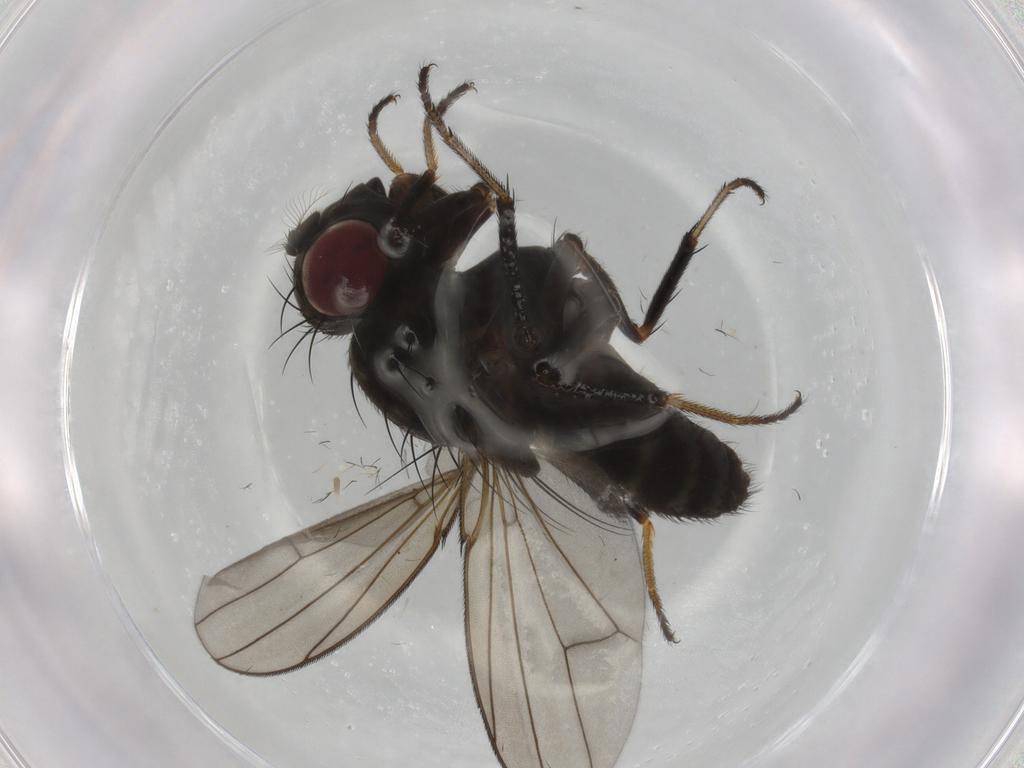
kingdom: Animalia
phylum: Arthropoda
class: Insecta
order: Diptera
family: Ephydridae
